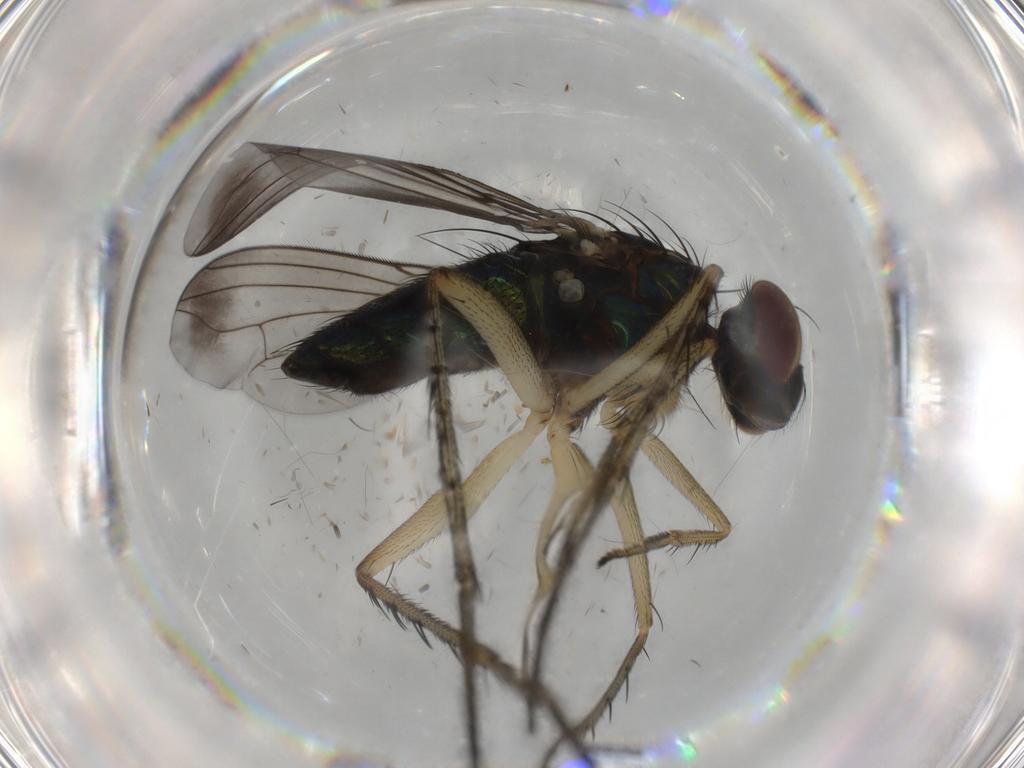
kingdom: Animalia
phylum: Arthropoda
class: Insecta
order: Diptera
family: Dolichopodidae
